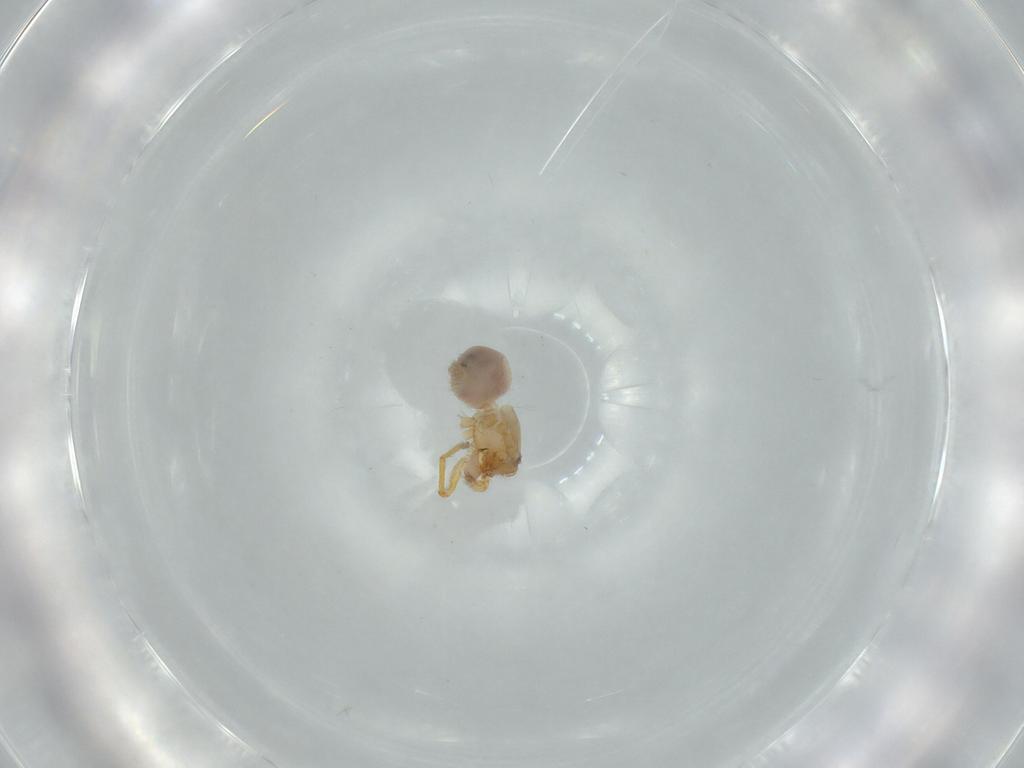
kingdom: Animalia
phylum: Arthropoda
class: Arachnida
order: Araneae
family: Oonopidae
